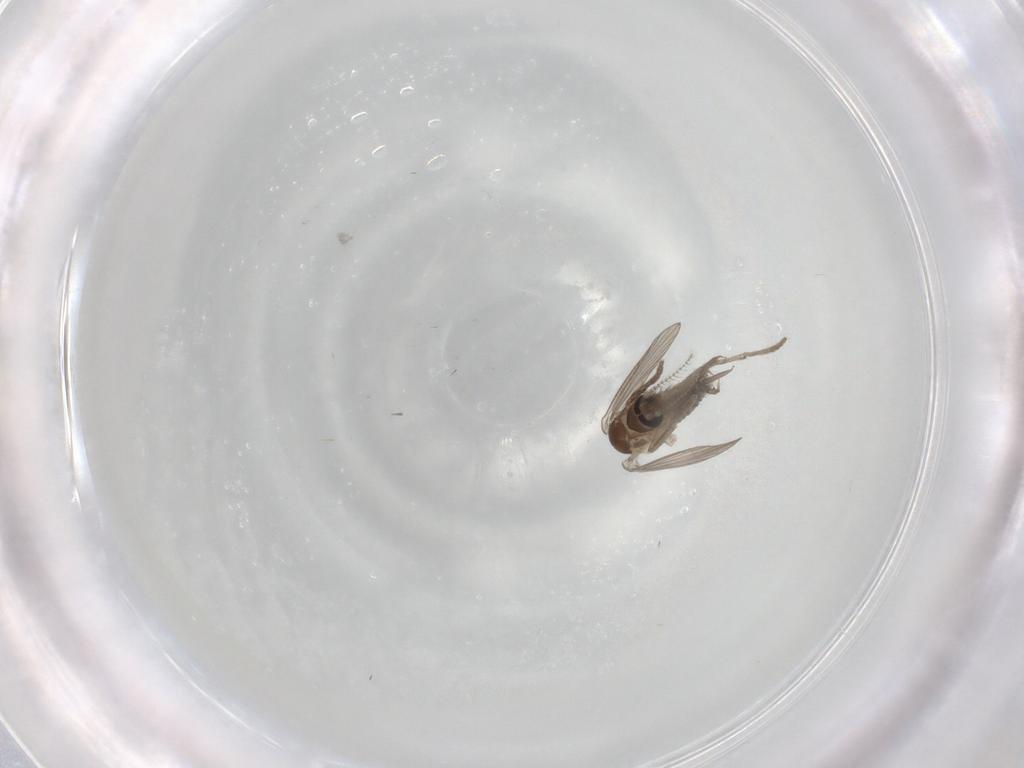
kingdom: Animalia
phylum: Arthropoda
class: Insecta
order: Diptera
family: Psychodidae
